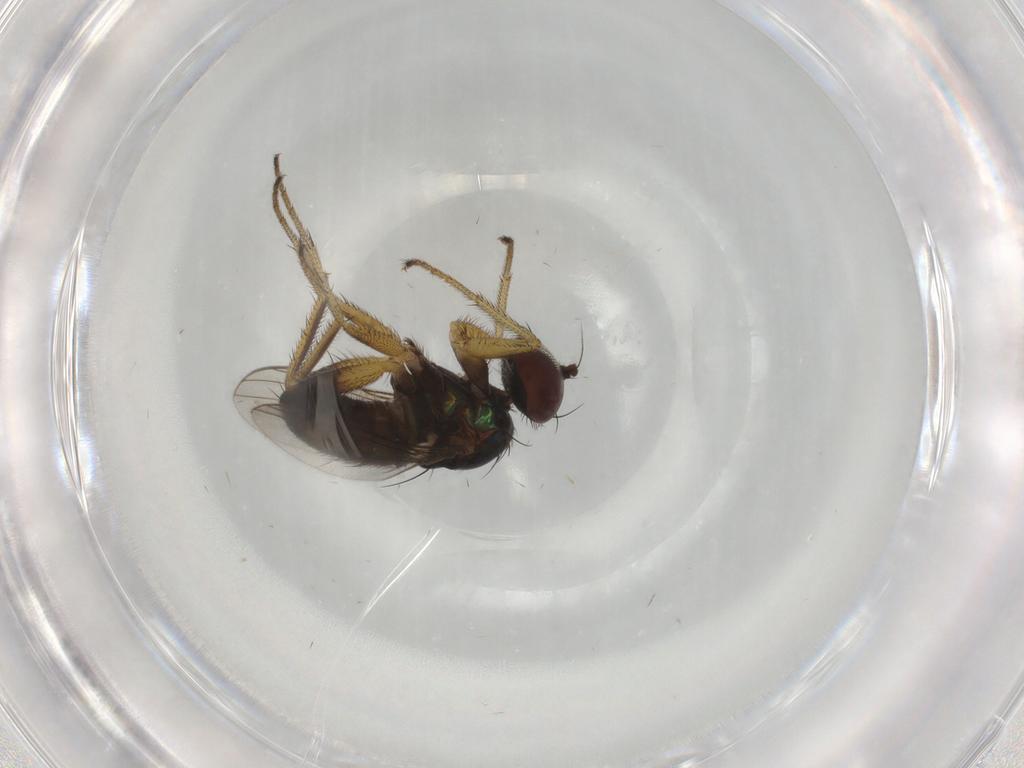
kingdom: Animalia
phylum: Arthropoda
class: Insecta
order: Diptera
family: Dolichopodidae
